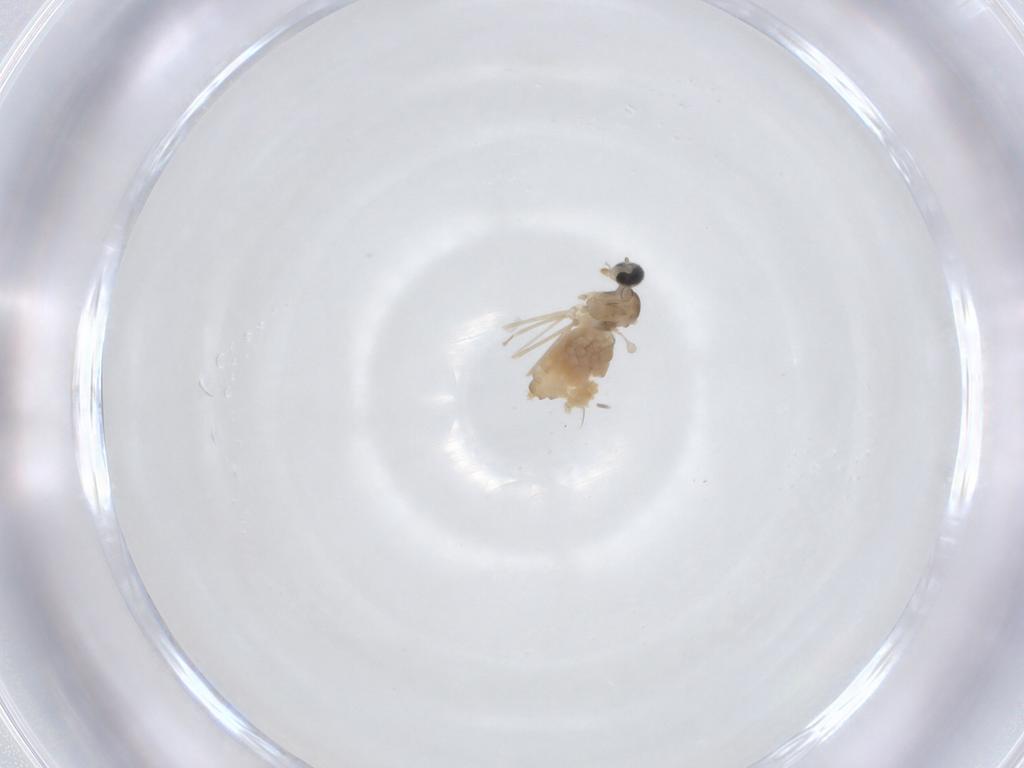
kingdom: Animalia
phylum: Arthropoda
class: Insecta
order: Diptera
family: Cecidomyiidae
